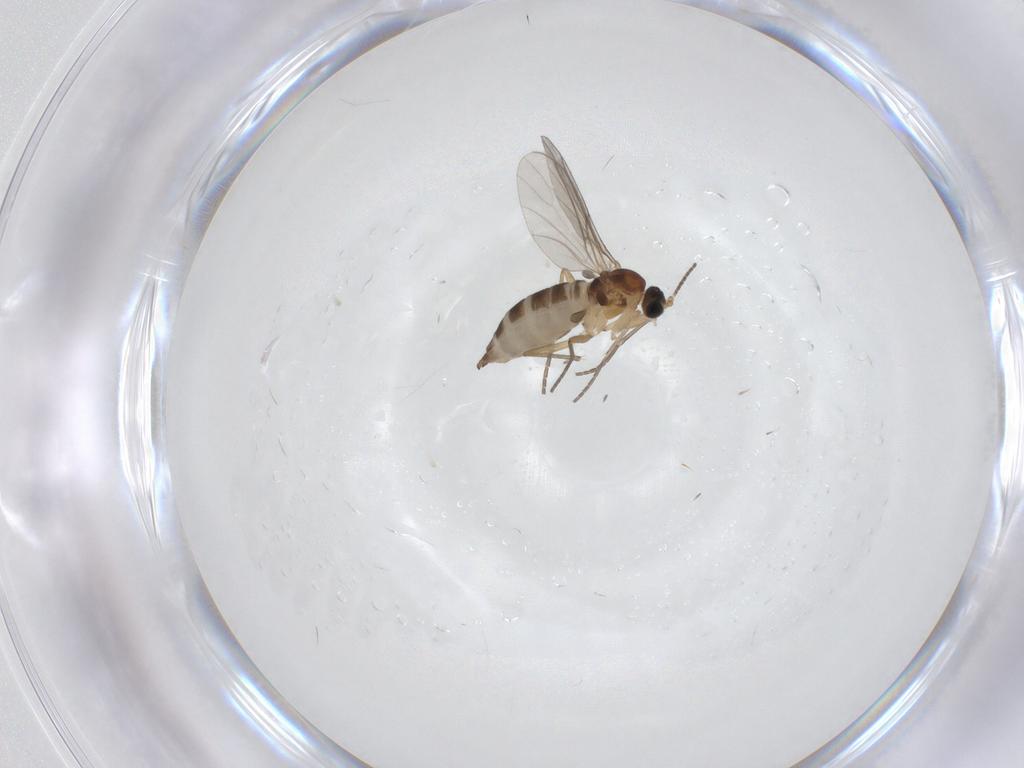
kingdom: Animalia
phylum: Arthropoda
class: Insecta
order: Diptera
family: Sciaridae
